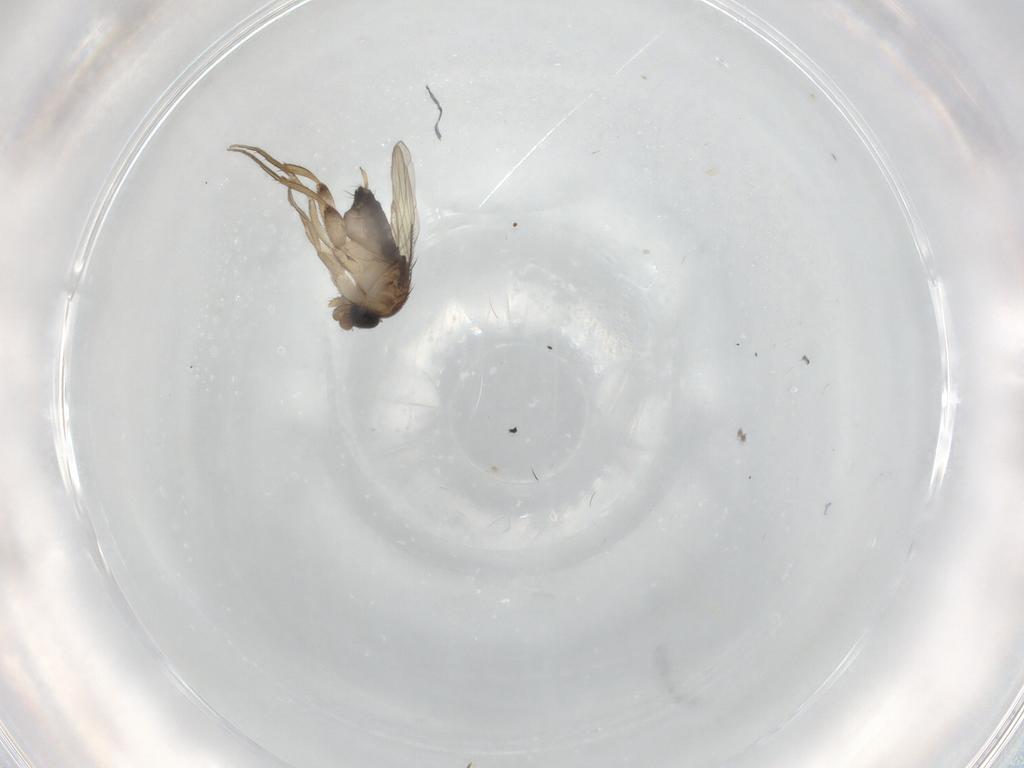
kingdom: Animalia
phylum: Arthropoda
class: Insecta
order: Diptera
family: Phoridae
